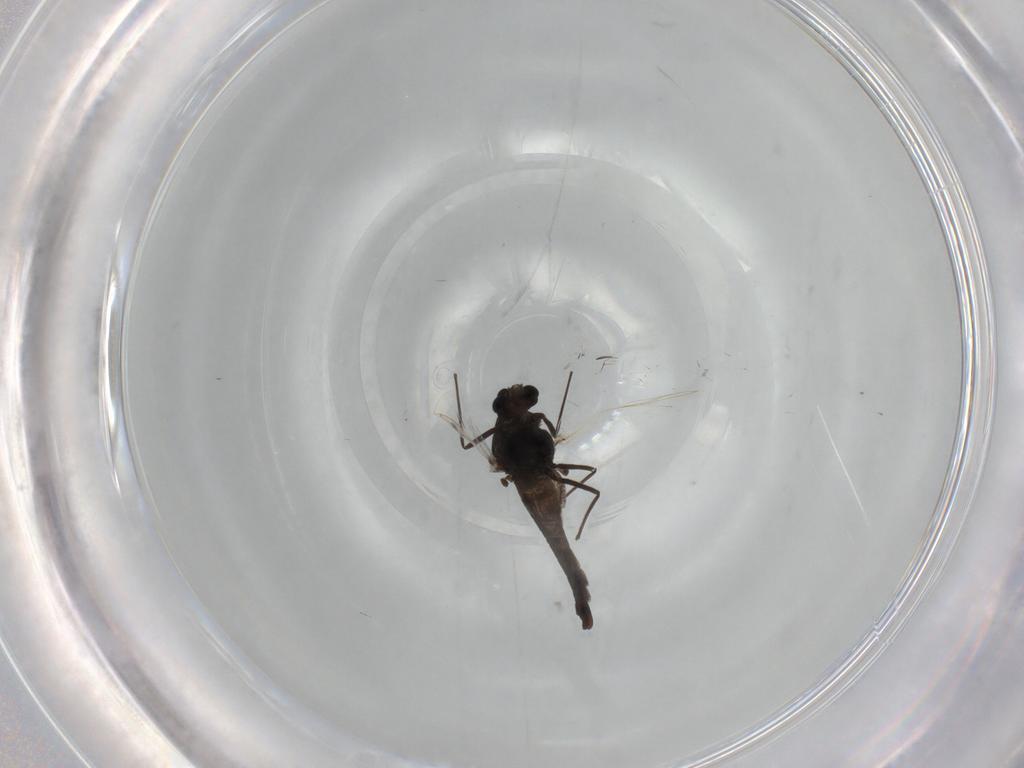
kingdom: Animalia
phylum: Arthropoda
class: Insecta
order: Diptera
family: Chironomidae
